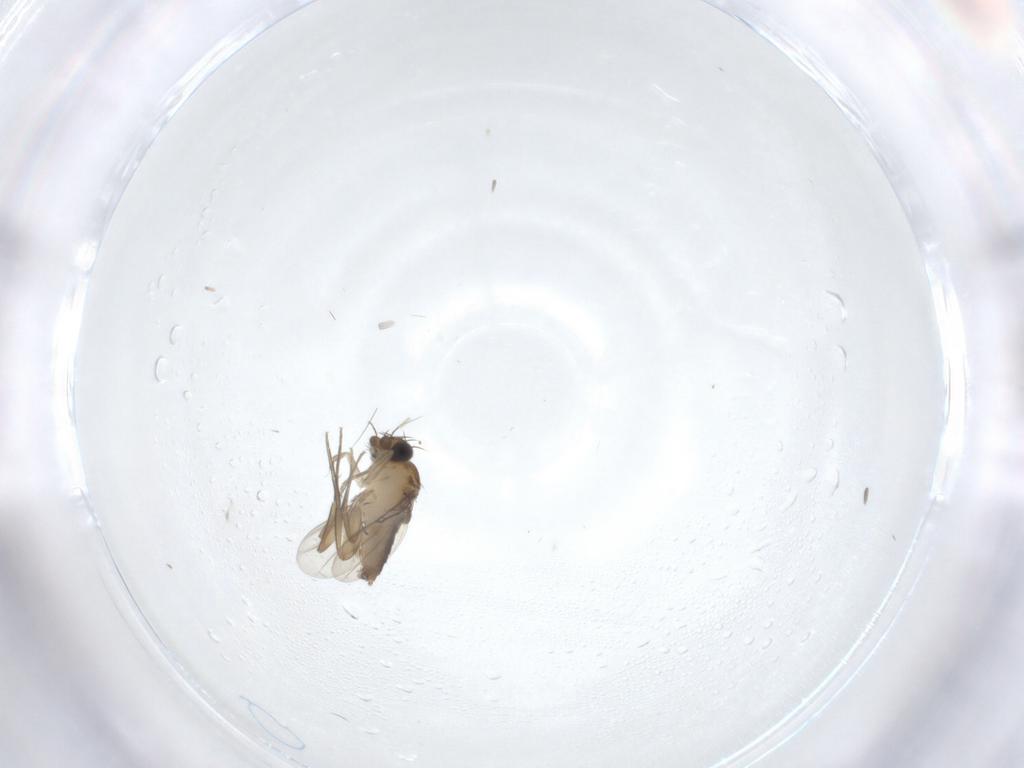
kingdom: Animalia
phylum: Arthropoda
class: Insecta
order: Diptera
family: Phoridae
